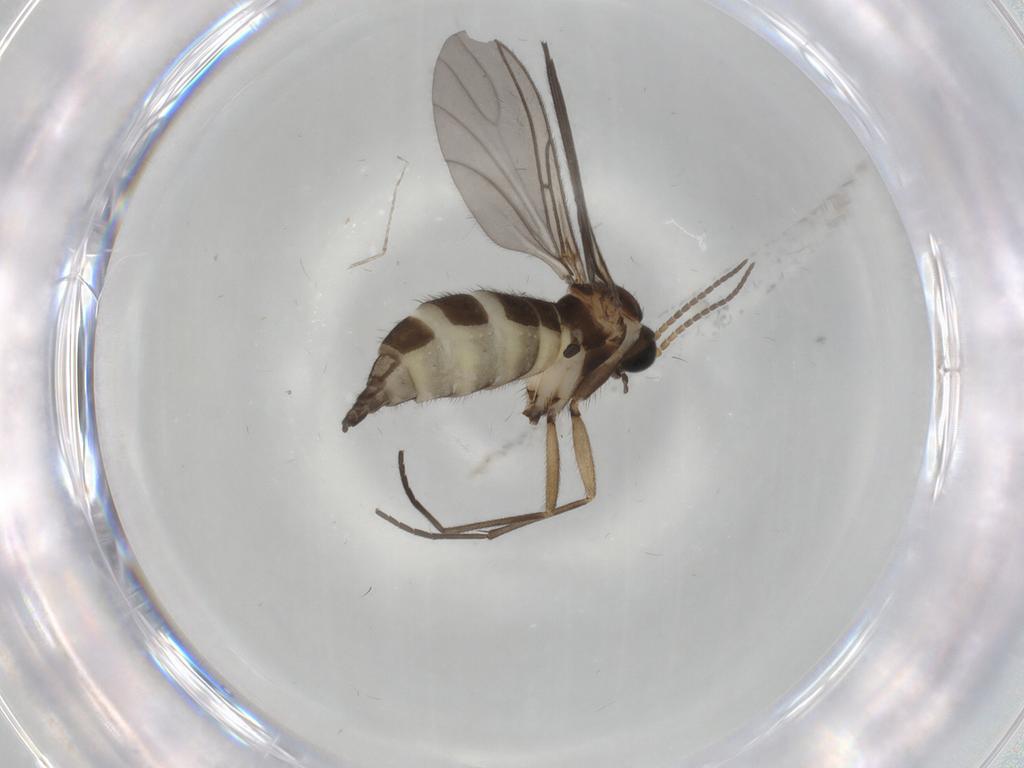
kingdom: Animalia
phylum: Arthropoda
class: Insecta
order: Diptera
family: Sciaridae
